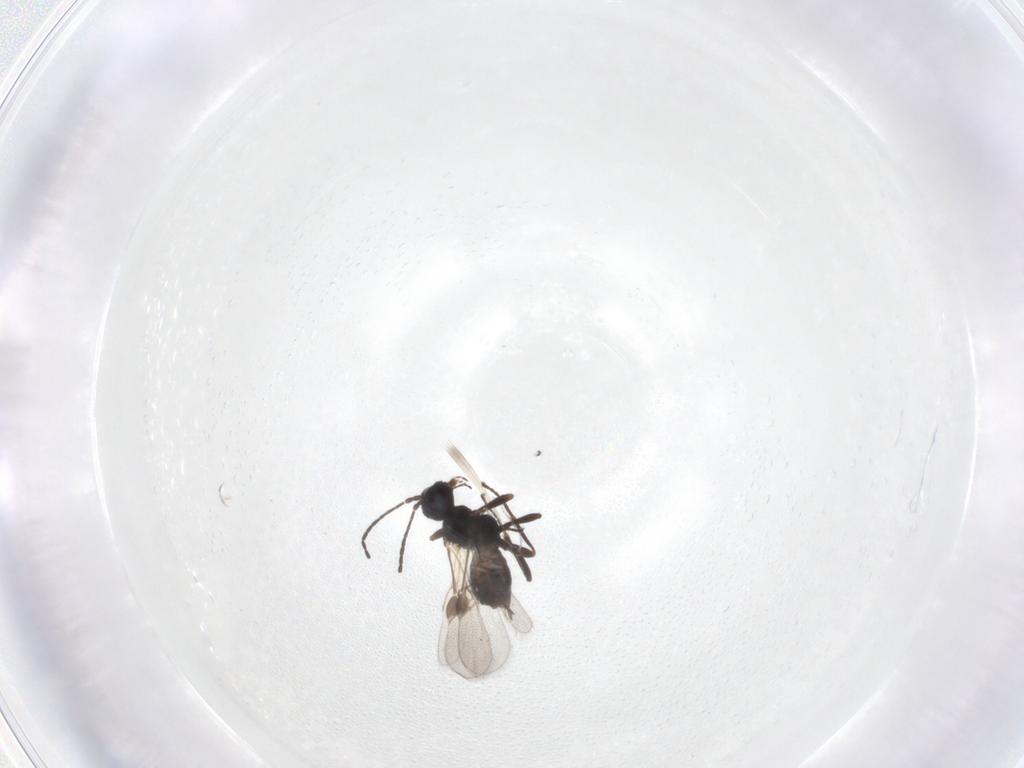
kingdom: Animalia
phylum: Arthropoda
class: Insecta
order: Hymenoptera
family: Braconidae
